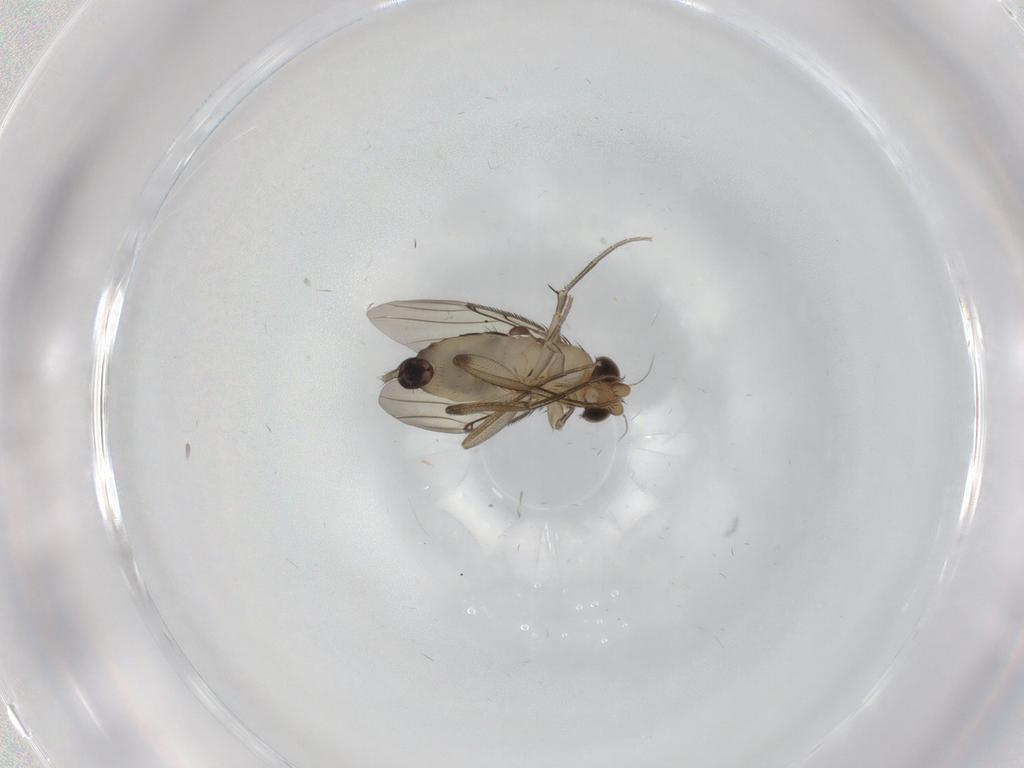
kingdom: Animalia
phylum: Arthropoda
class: Insecta
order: Diptera
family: Phoridae
